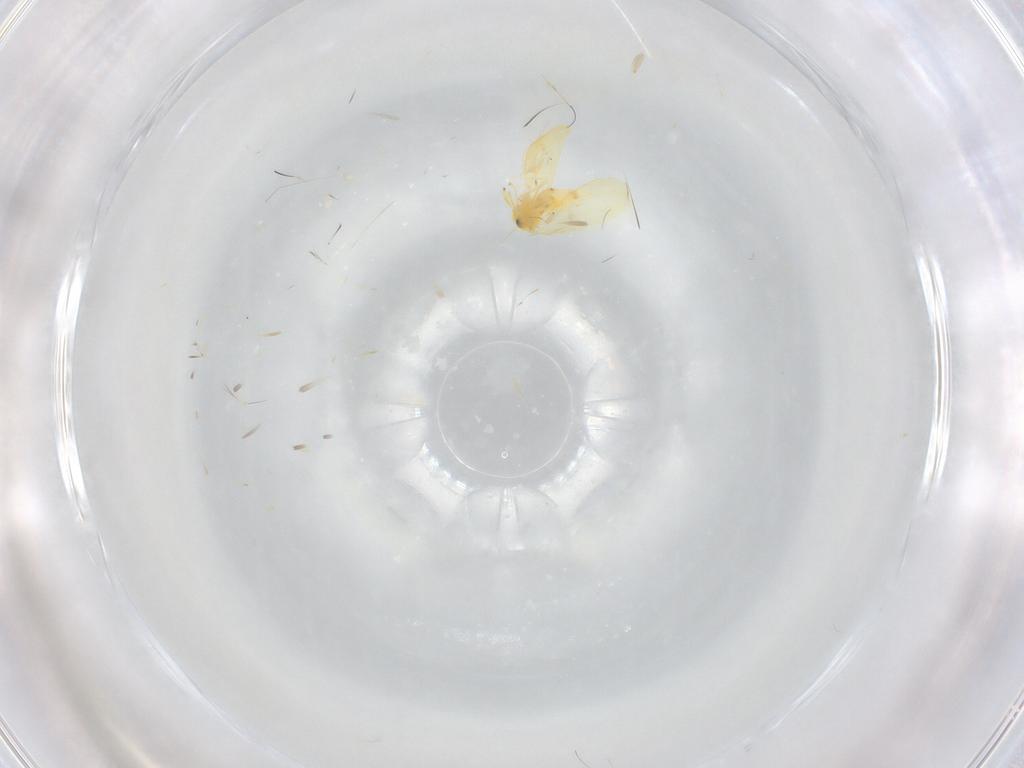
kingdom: Animalia
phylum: Arthropoda
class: Insecta
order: Hemiptera
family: Aleyrodidae
